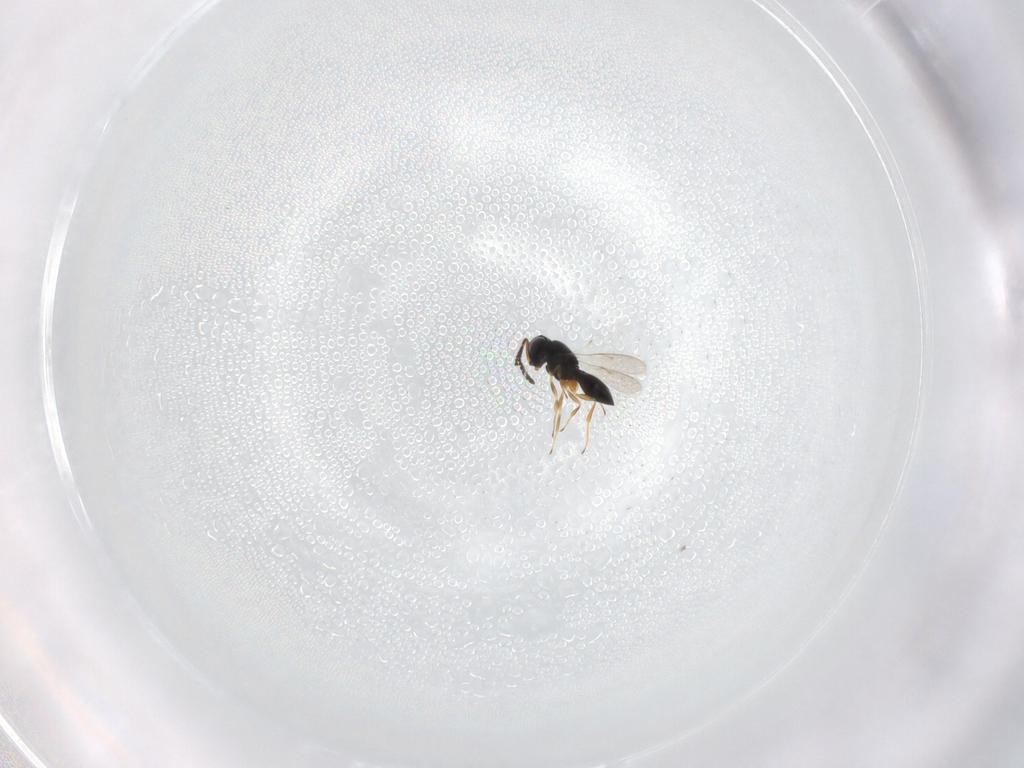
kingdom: Animalia
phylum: Arthropoda
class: Insecta
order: Hymenoptera
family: Scelionidae
